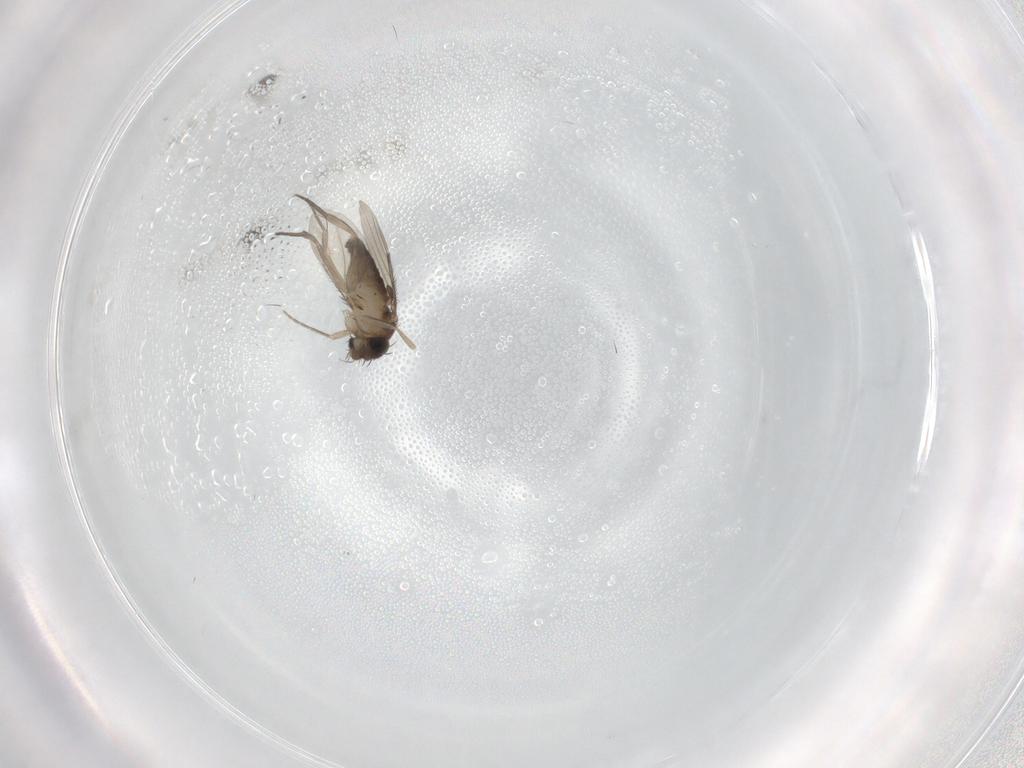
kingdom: Animalia
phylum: Arthropoda
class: Insecta
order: Diptera
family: Phoridae
